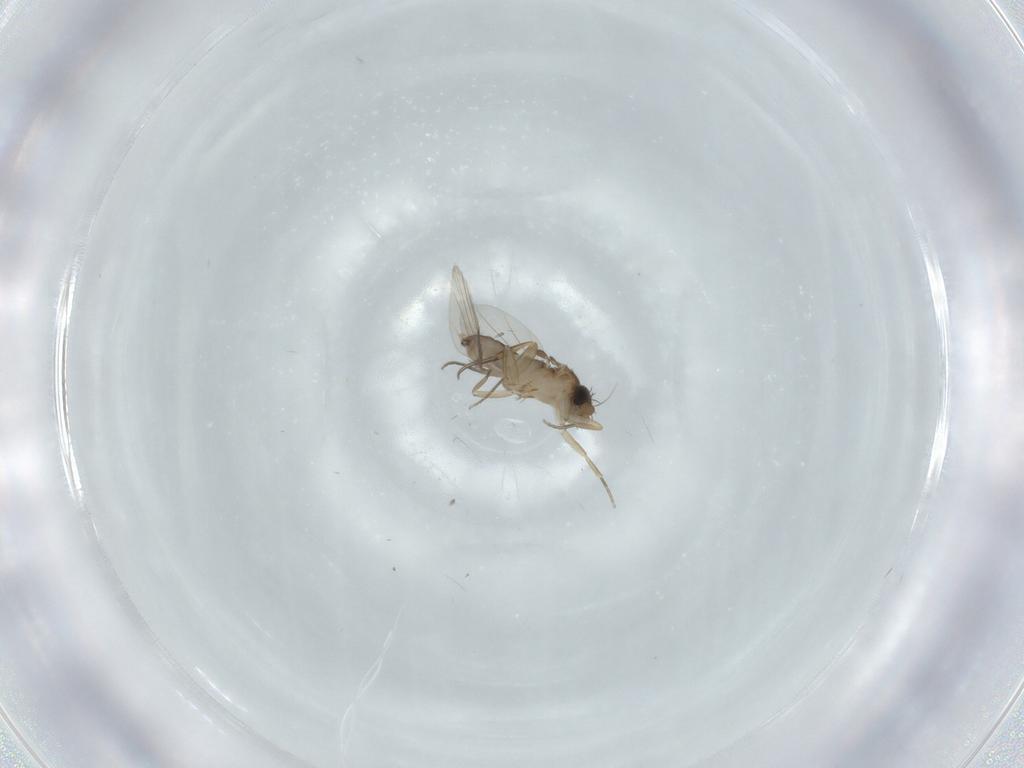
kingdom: Animalia
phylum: Arthropoda
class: Insecta
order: Diptera
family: Phoridae
